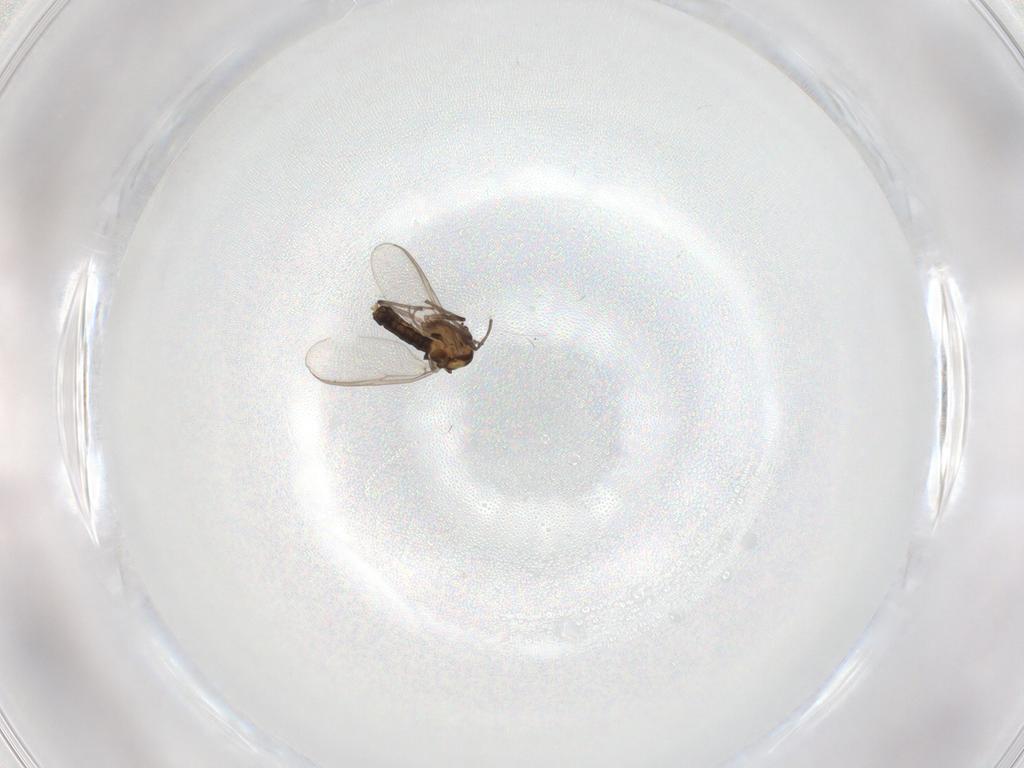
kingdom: Animalia
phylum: Arthropoda
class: Insecta
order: Diptera
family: Chironomidae
